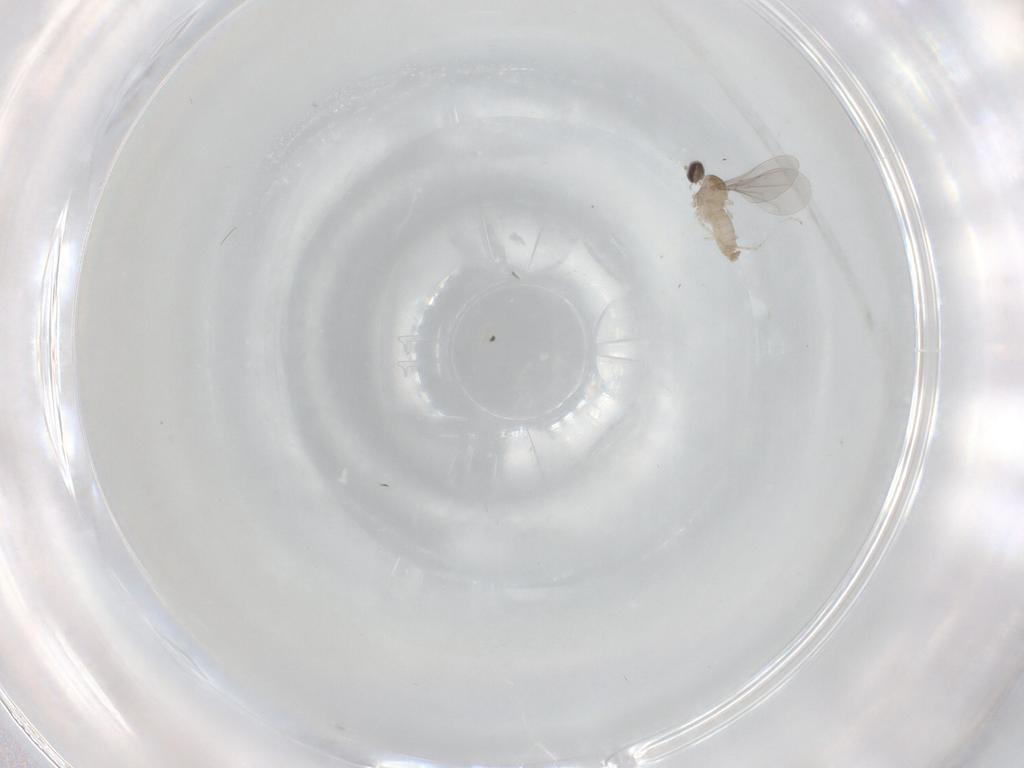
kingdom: Animalia
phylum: Arthropoda
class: Insecta
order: Diptera
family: Cecidomyiidae
